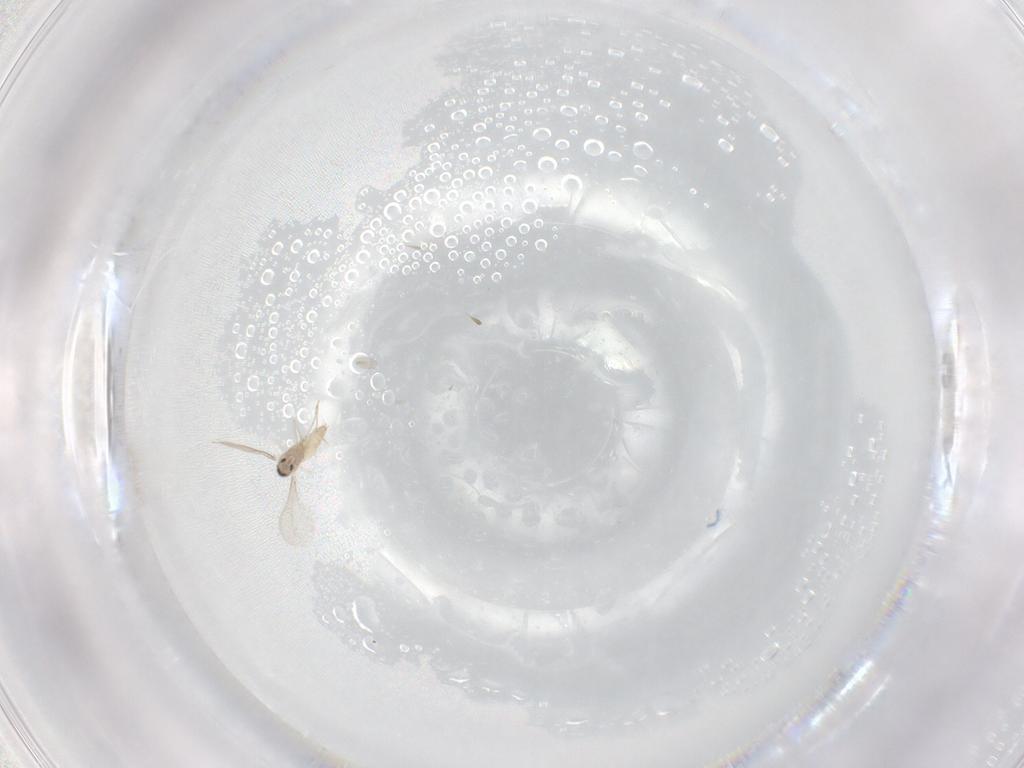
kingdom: Animalia
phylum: Arthropoda
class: Insecta
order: Diptera
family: Cecidomyiidae
